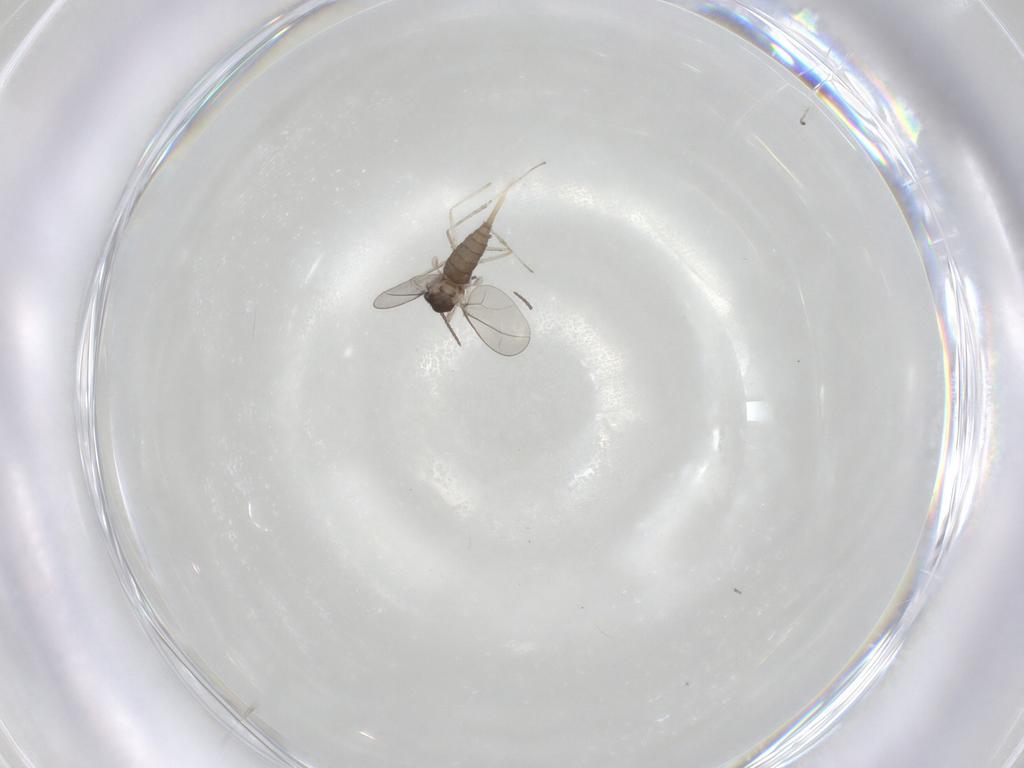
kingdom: Animalia
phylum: Arthropoda
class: Insecta
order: Diptera
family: Cecidomyiidae
